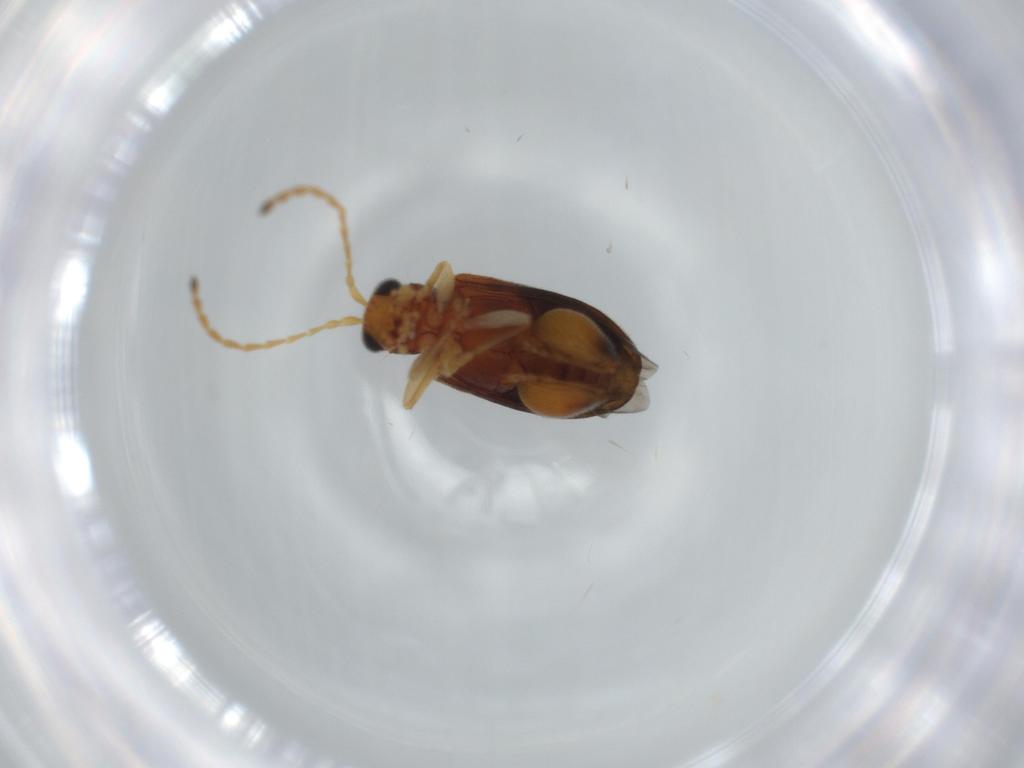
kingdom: Animalia
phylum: Arthropoda
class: Insecta
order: Coleoptera
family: Chrysomelidae
